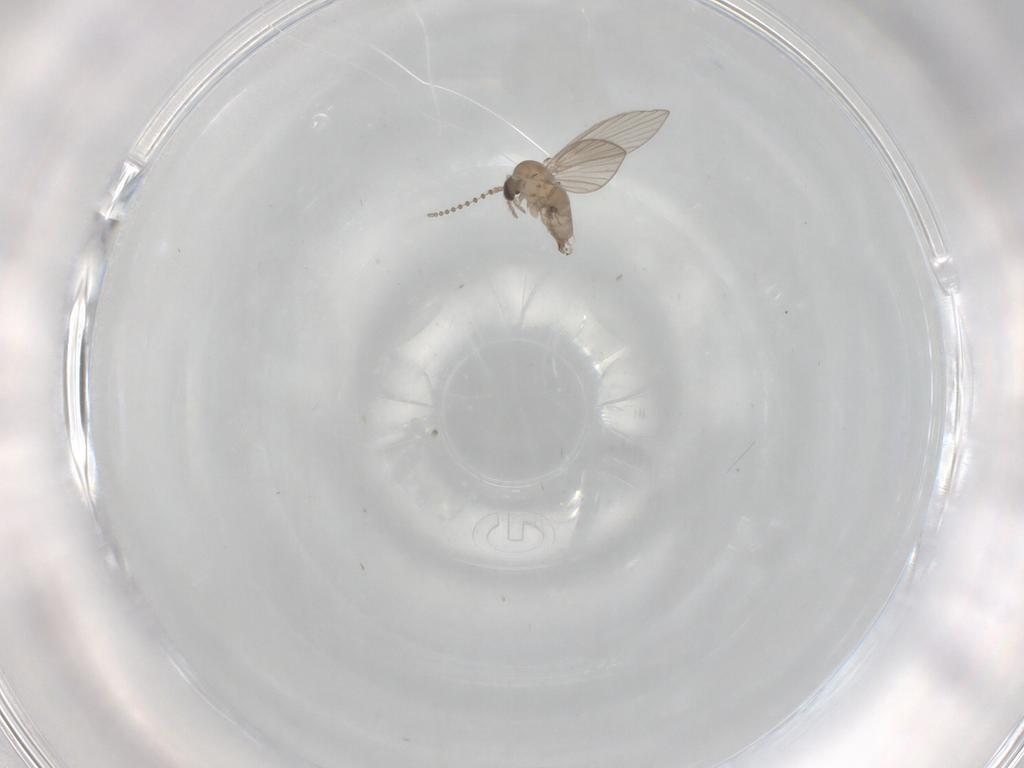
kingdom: Animalia
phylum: Arthropoda
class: Insecta
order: Diptera
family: Psychodidae
